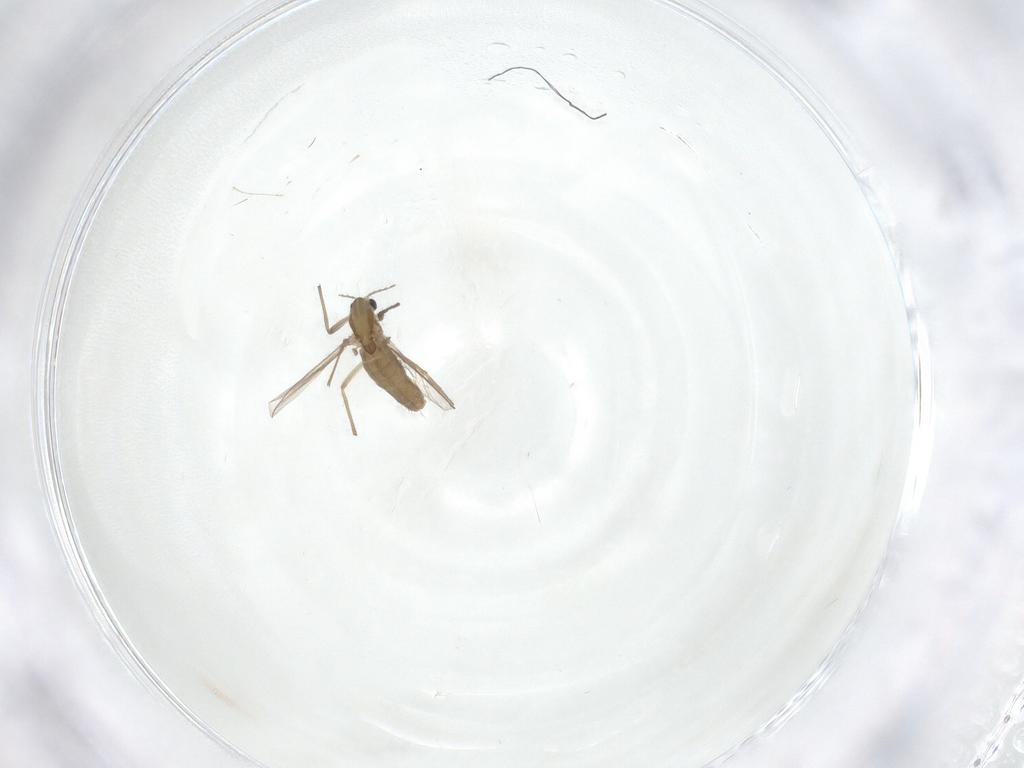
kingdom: Animalia
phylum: Arthropoda
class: Insecta
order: Diptera
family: Chironomidae
